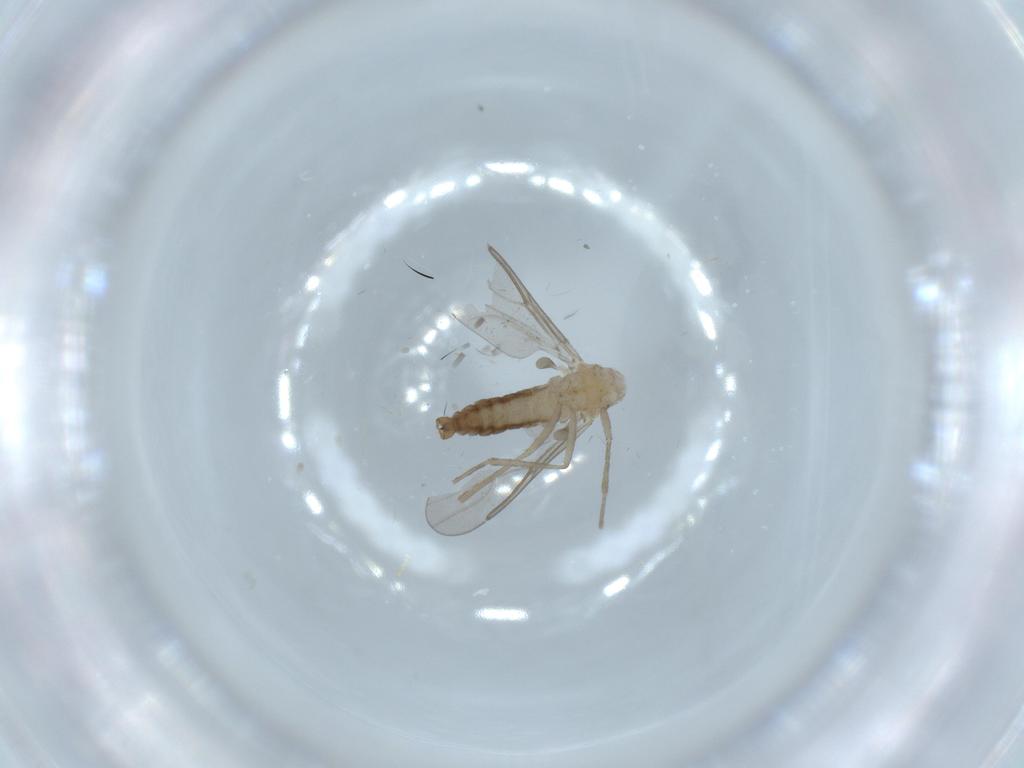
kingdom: Animalia
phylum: Arthropoda
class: Insecta
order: Diptera
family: Cecidomyiidae
